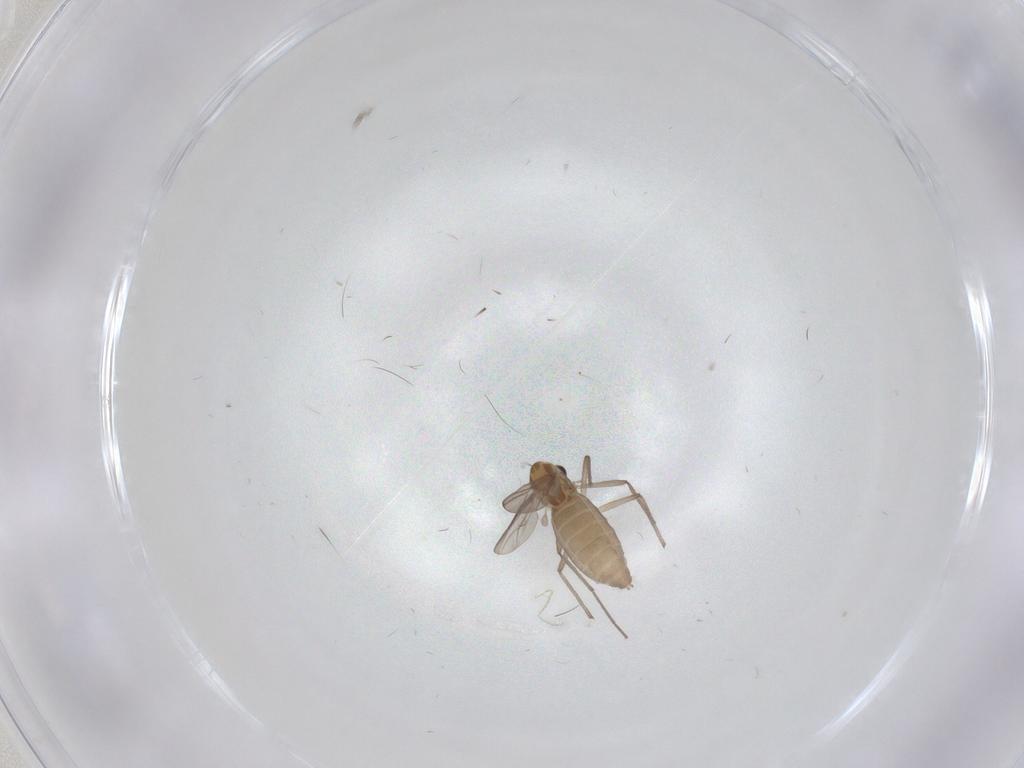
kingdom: Animalia
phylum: Arthropoda
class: Insecta
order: Diptera
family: Chironomidae
